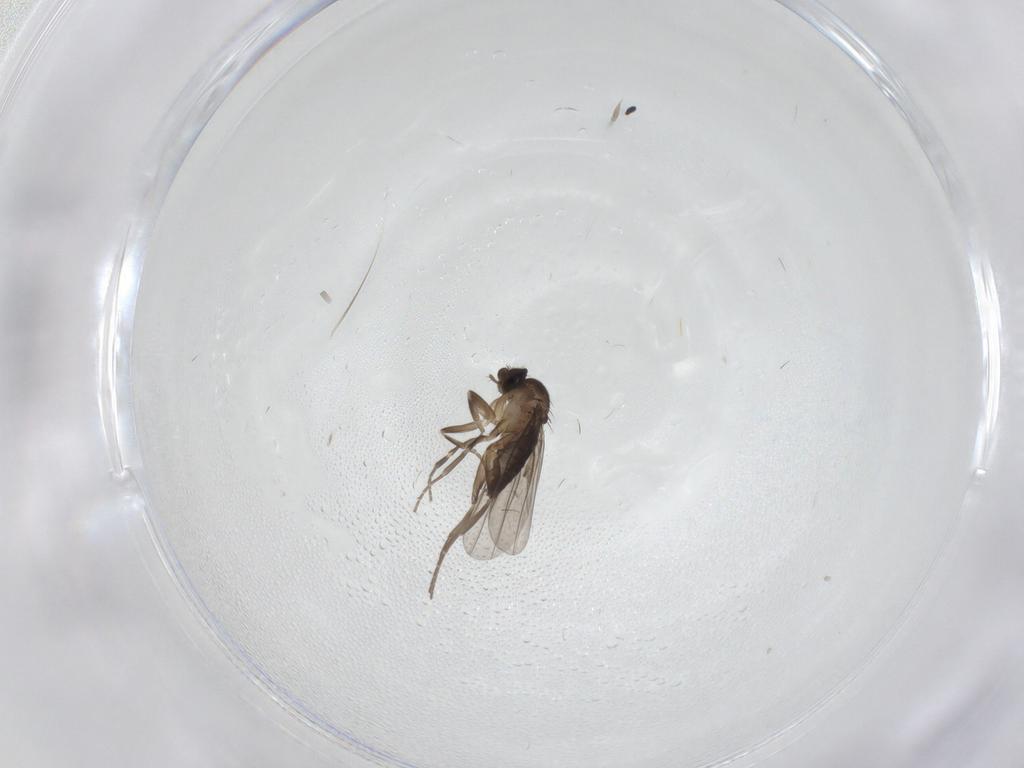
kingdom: Animalia
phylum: Arthropoda
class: Insecta
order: Diptera
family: Phoridae
